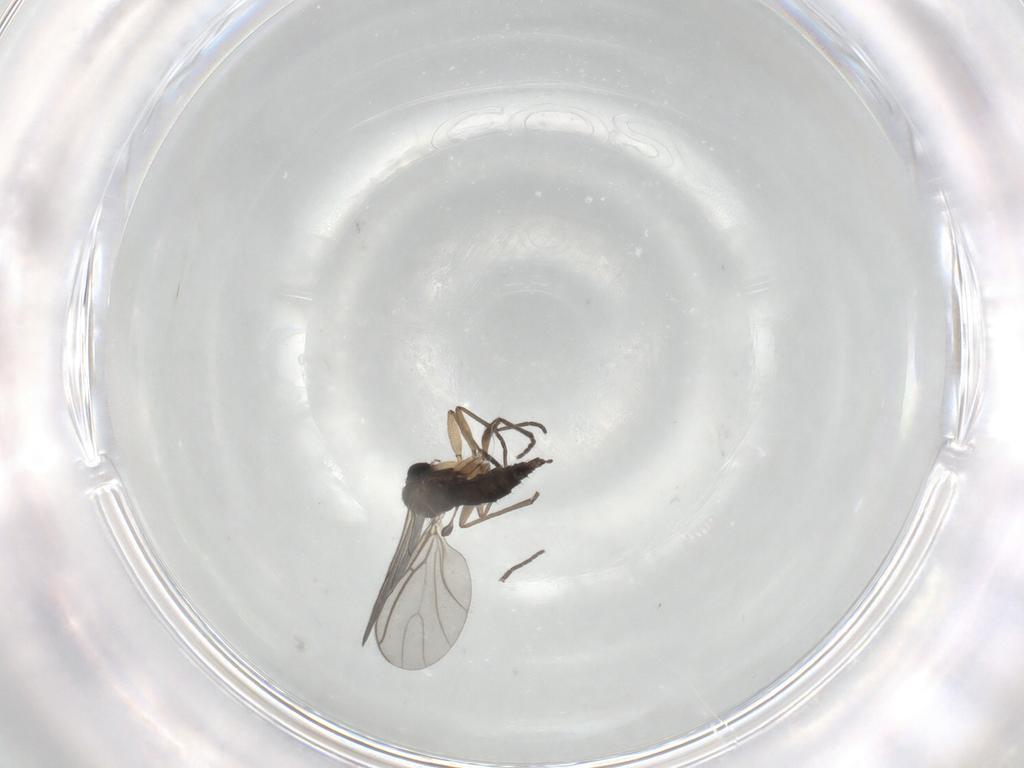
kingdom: Animalia
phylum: Arthropoda
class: Insecta
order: Diptera
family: Sciaridae
